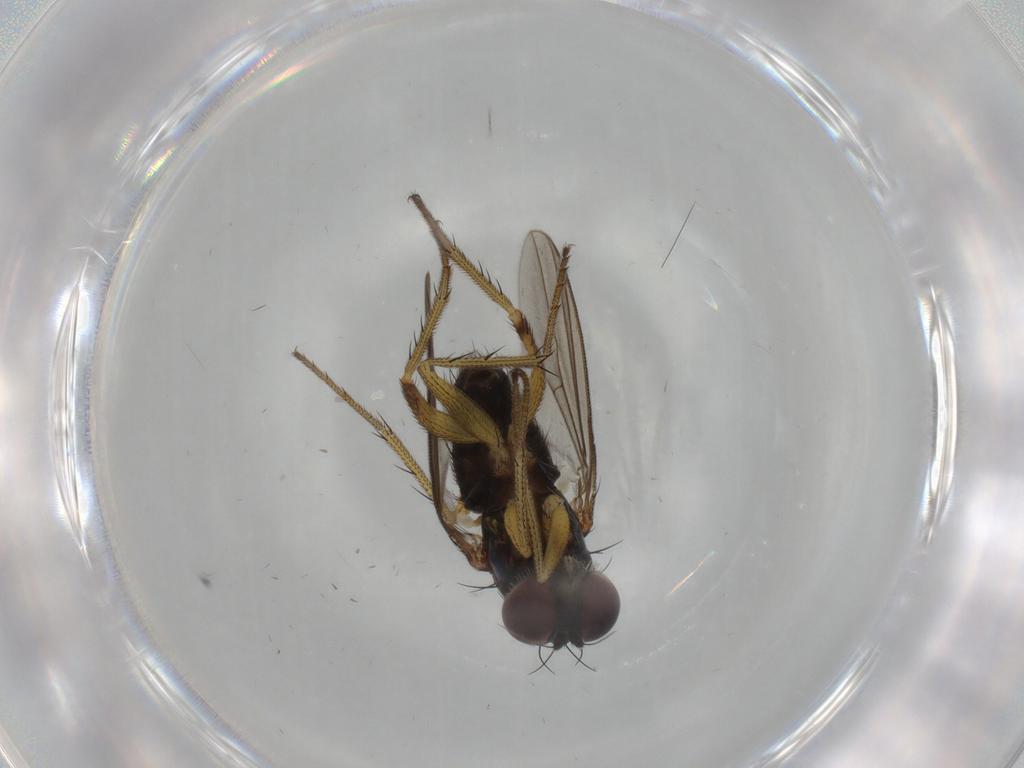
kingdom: Animalia
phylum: Arthropoda
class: Insecta
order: Diptera
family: Dolichopodidae
